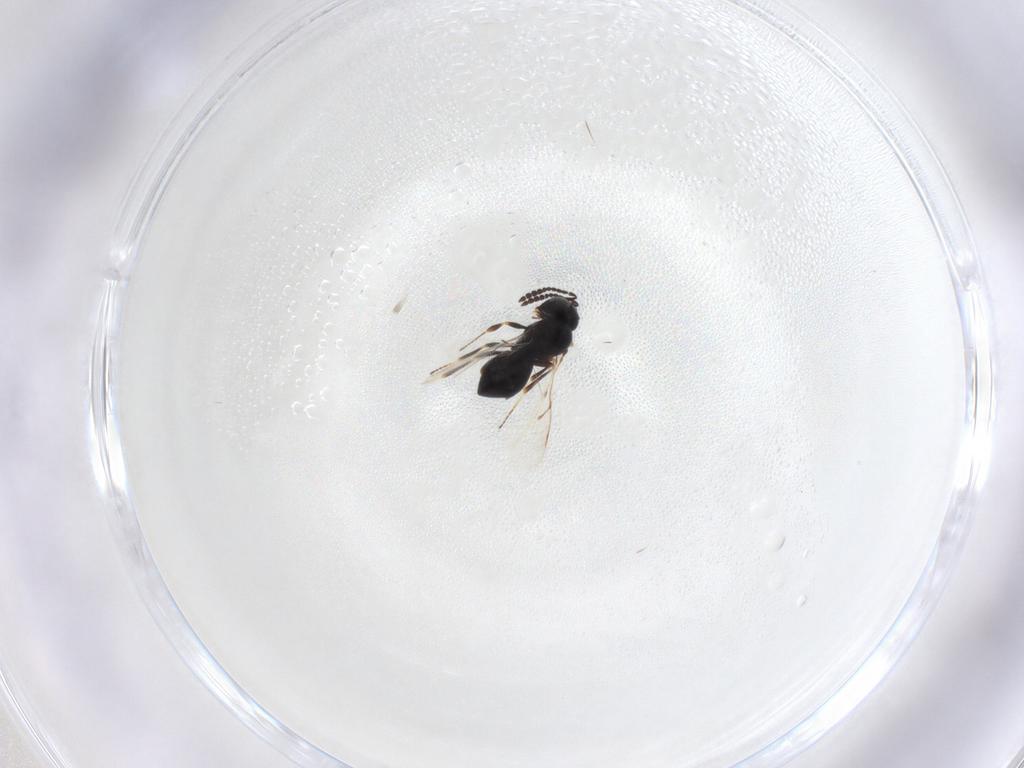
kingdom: Animalia
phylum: Arthropoda
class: Insecta
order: Hymenoptera
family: Scelionidae
